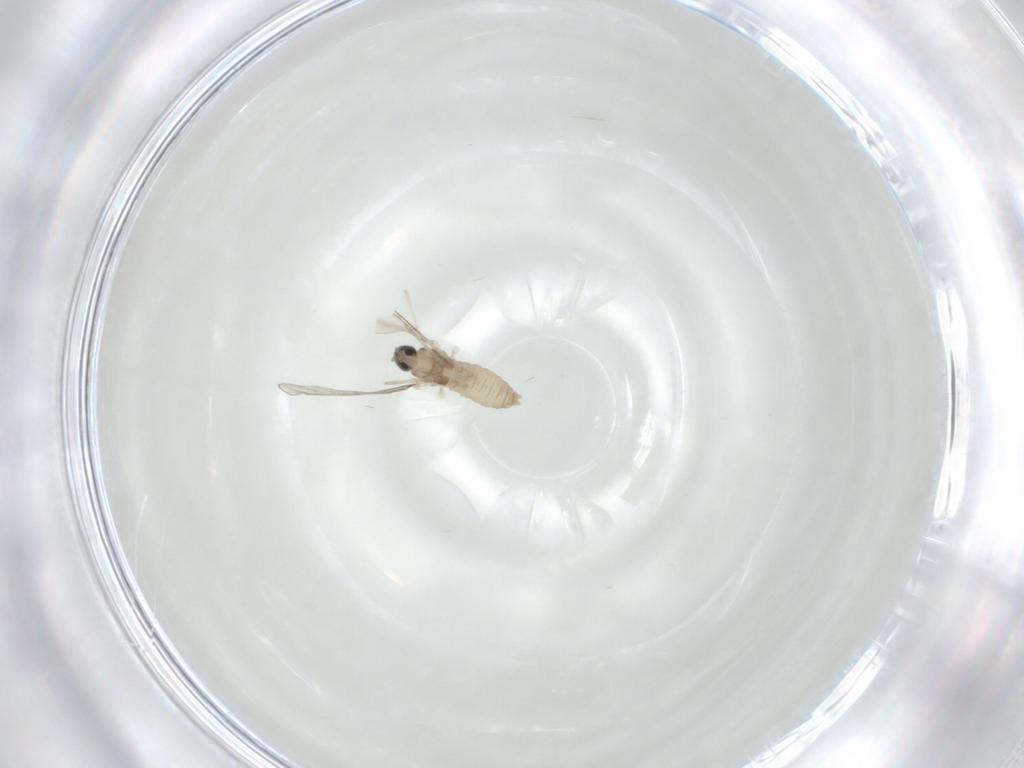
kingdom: Animalia
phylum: Arthropoda
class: Insecta
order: Diptera
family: Cecidomyiidae
